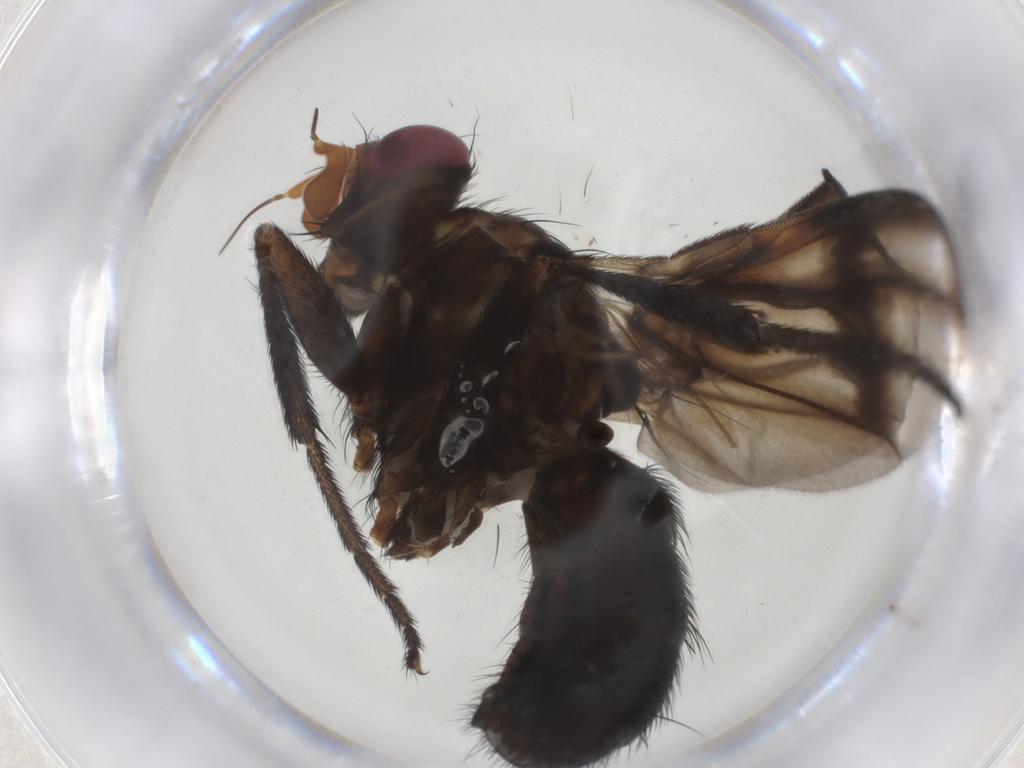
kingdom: Animalia
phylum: Arthropoda
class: Insecta
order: Diptera
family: Calliphoridae
